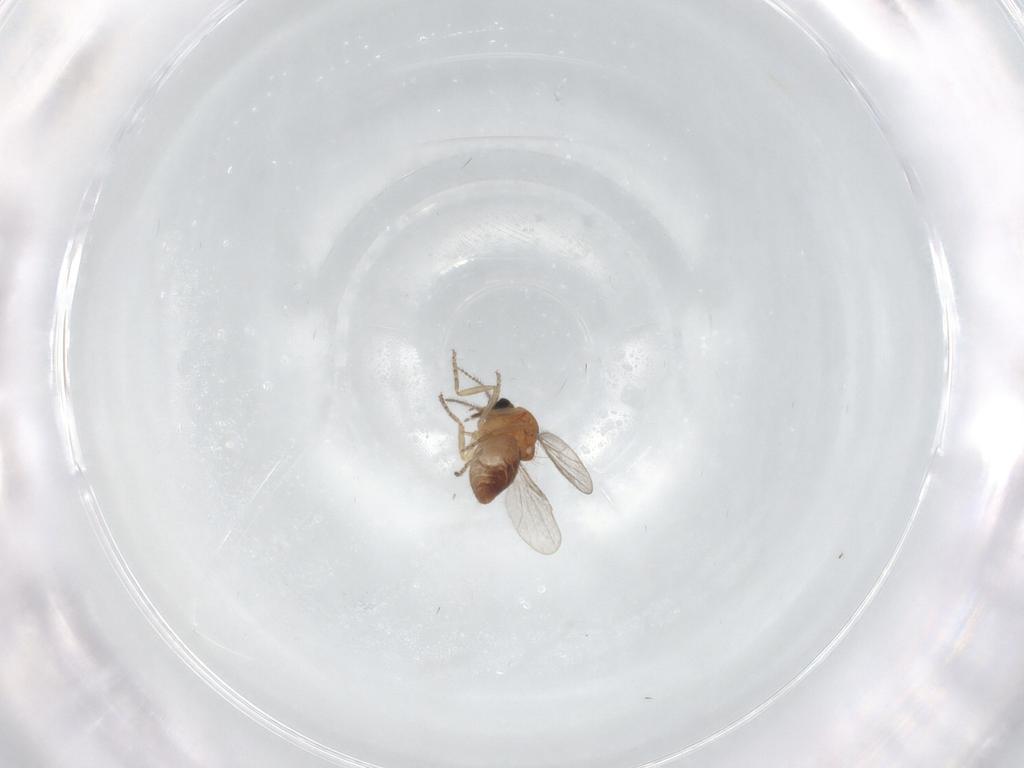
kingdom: Animalia
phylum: Arthropoda
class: Insecta
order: Diptera
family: Ceratopogonidae
